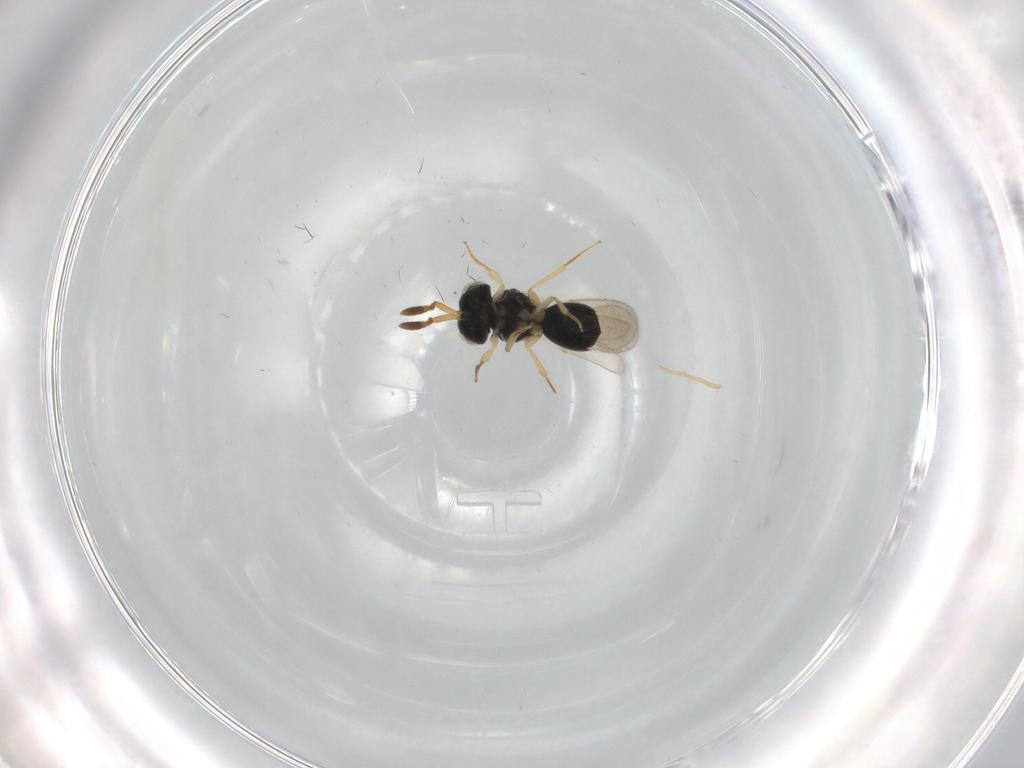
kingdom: Animalia
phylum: Arthropoda
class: Insecta
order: Hymenoptera
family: Scelionidae
